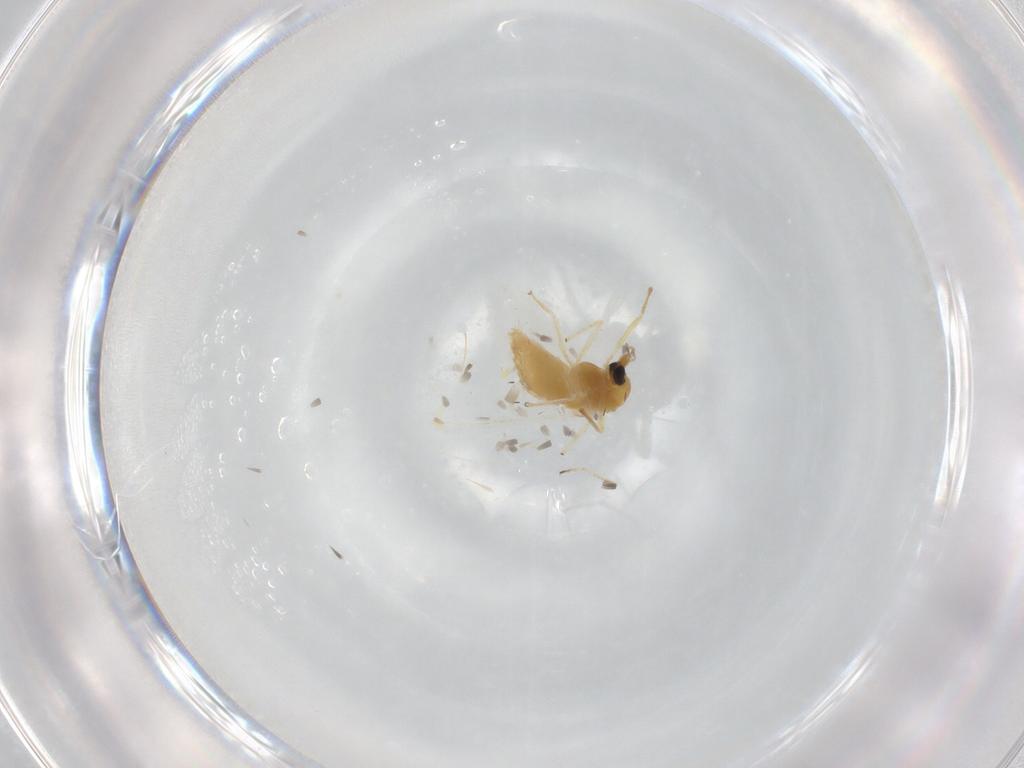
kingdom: Animalia
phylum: Arthropoda
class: Insecta
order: Diptera
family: Chironomidae
